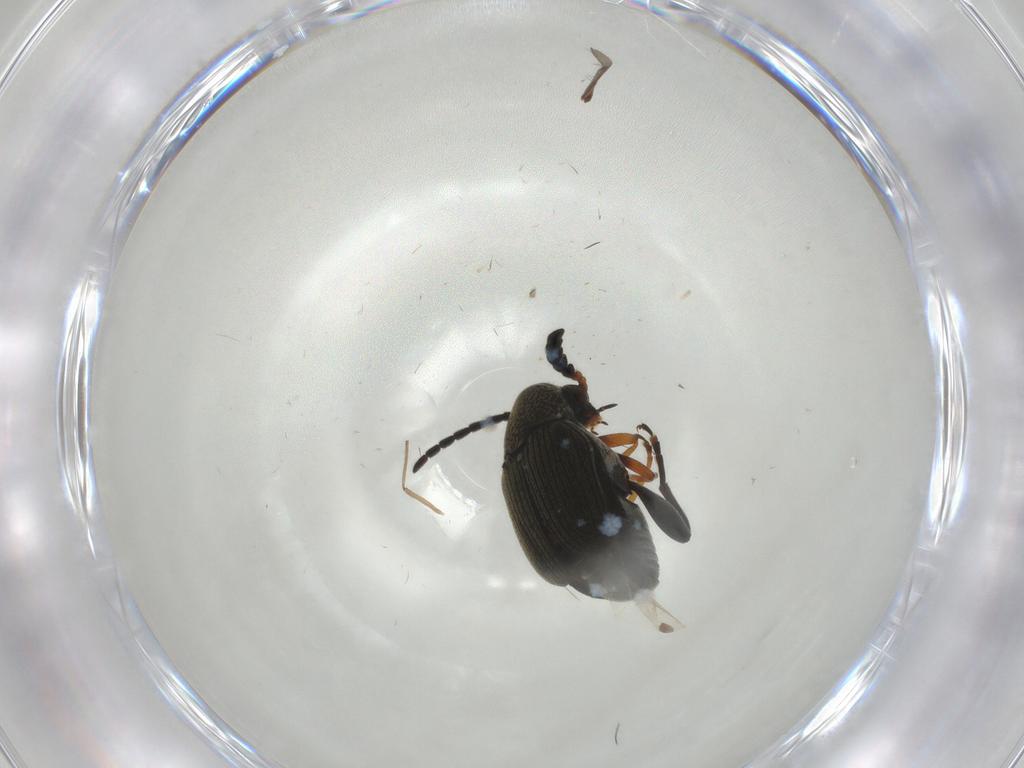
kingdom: Animalia
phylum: Arthropoda
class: Insecta
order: Coleoptera
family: Chrysomelidae
